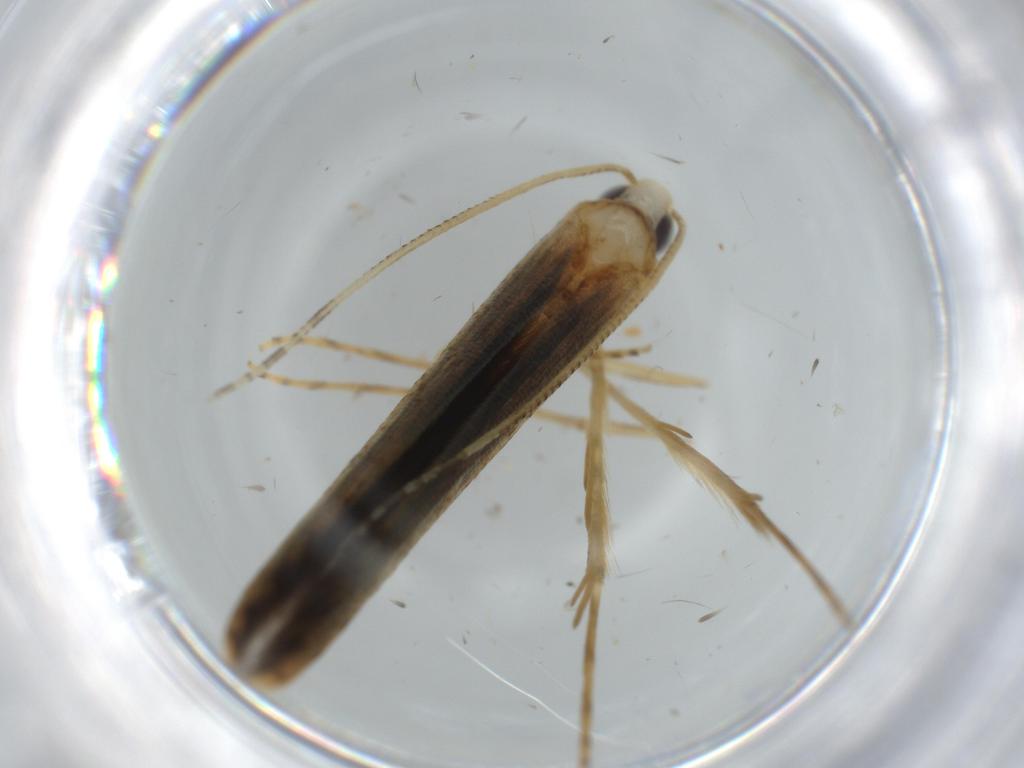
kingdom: Animalia
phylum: Arthropoda
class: Insecta
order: Lepidoptera
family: Batrachedridae
